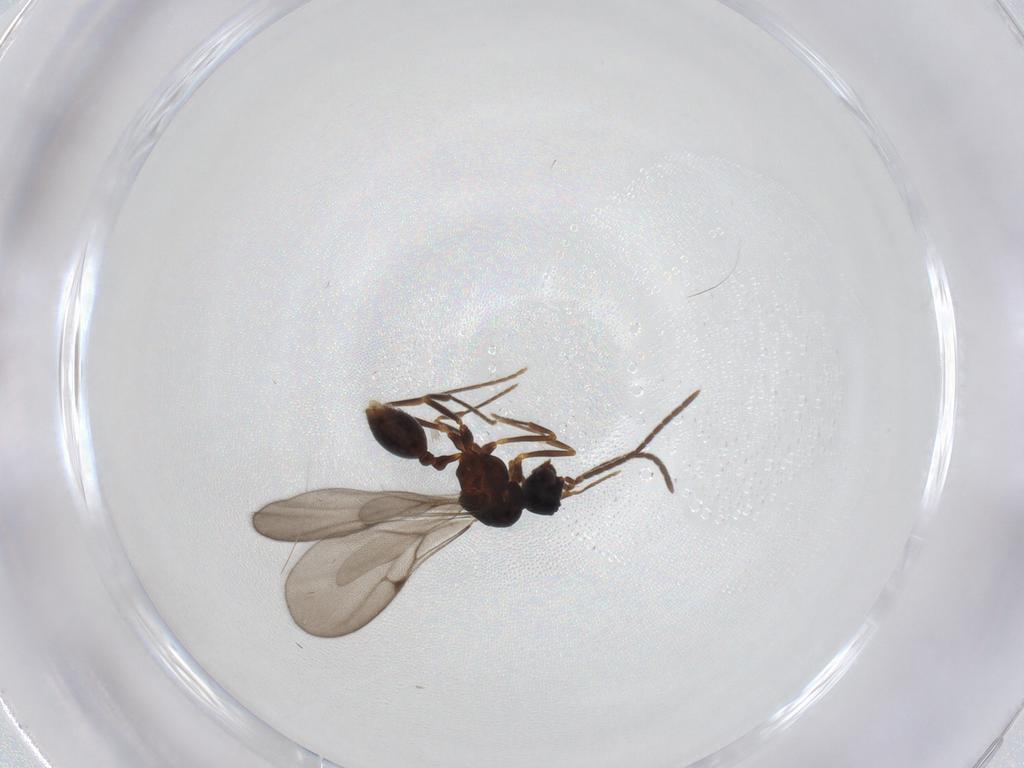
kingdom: Animalia
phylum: Arthropoda
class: Insecta
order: Hymenoptera
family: Formicidae
